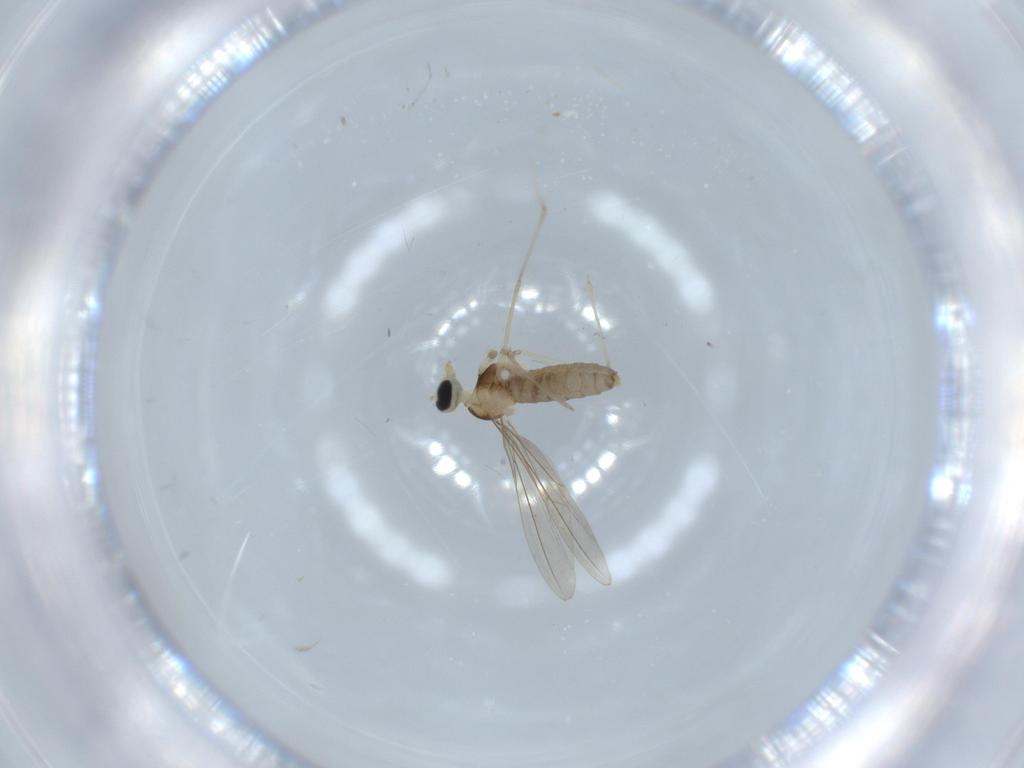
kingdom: Animalia
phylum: Arthropoda
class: Insecta
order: Diptera
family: Cecidomyiidae
